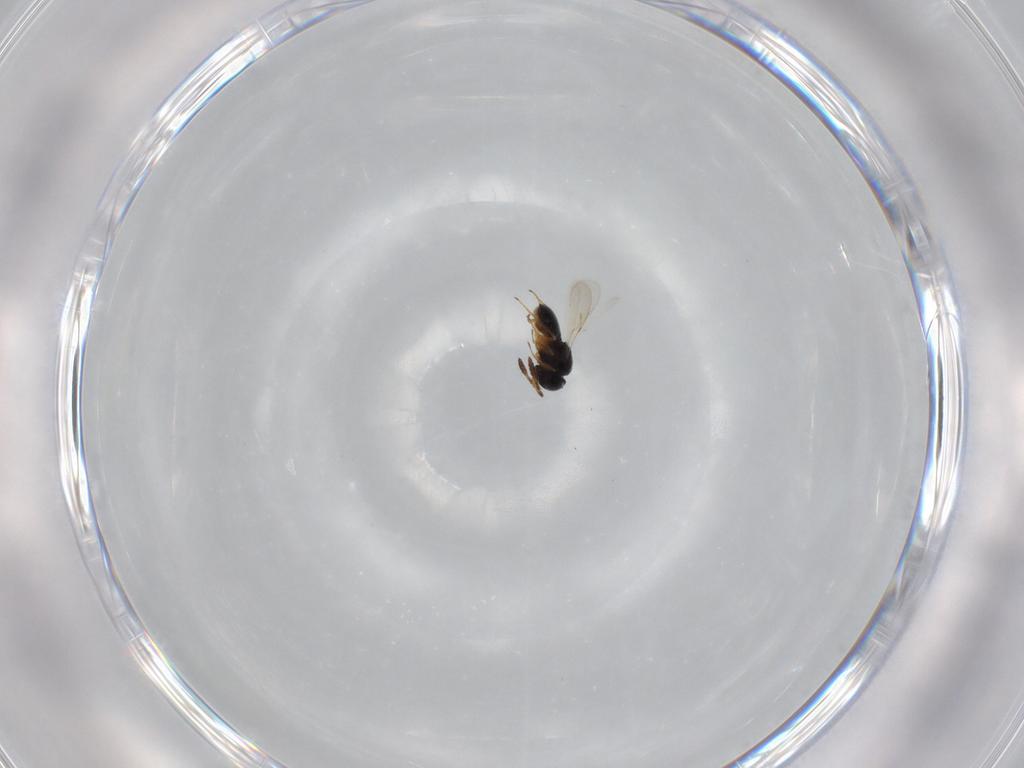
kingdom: Animalia
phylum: Arthropoda
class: Insecta
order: Hymenoptera
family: Scelionidae
